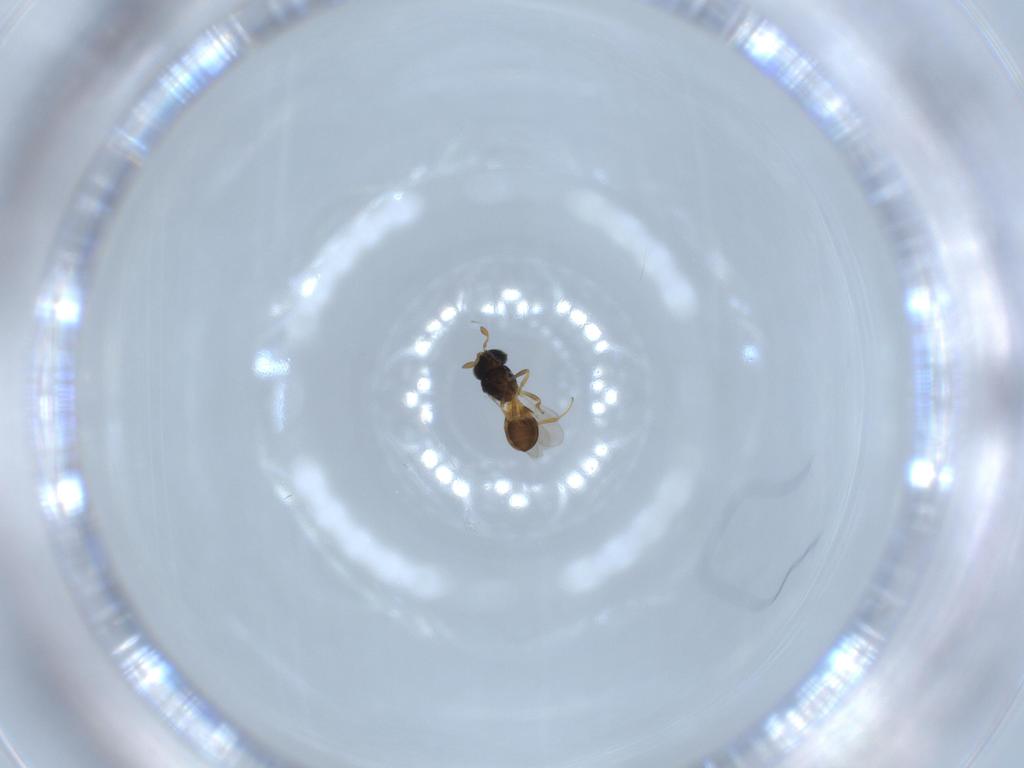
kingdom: Animalia
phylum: Arthropoda
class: Insecta
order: Hymenoptera
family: Scelionidae
